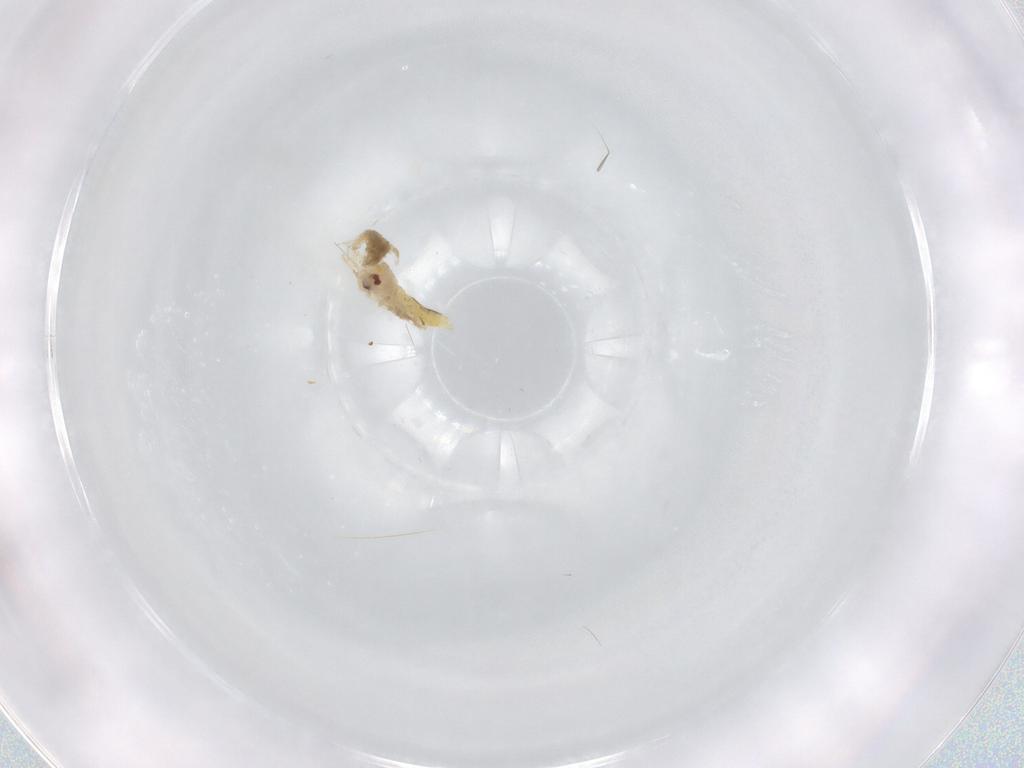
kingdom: Animalia
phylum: Arthropoda
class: Insecta
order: Hemiptera
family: Aleyrodidae
